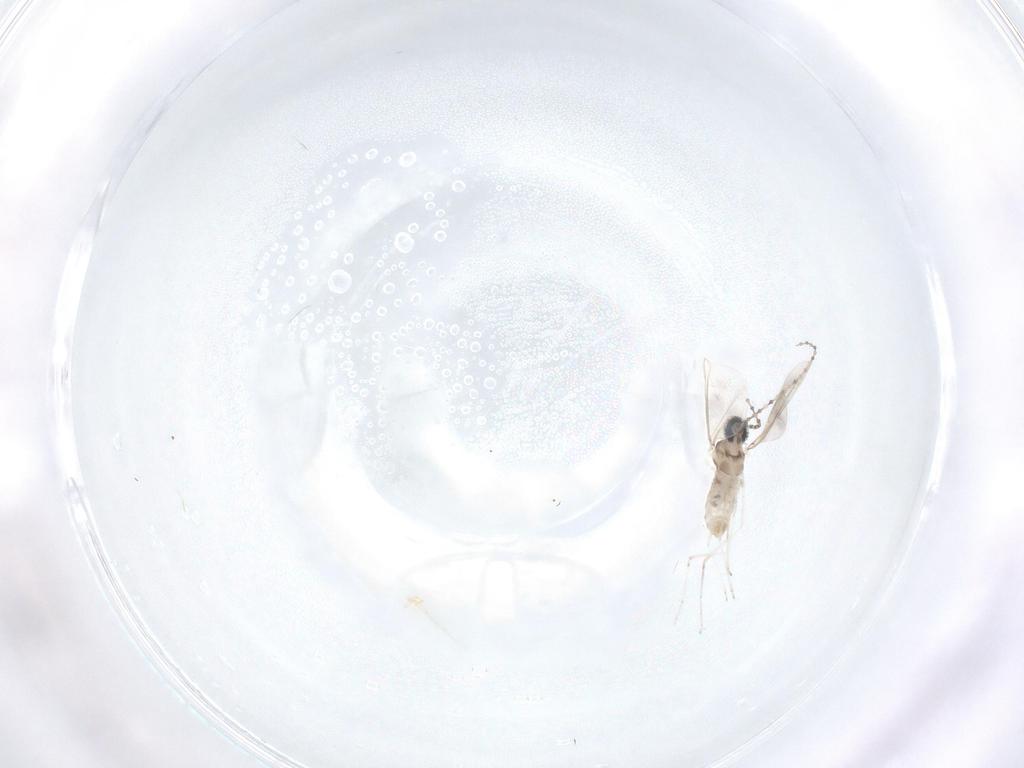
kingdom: Animalia
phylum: Arthropoda
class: Insecta
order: Diptera
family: Cecidomyiidae
